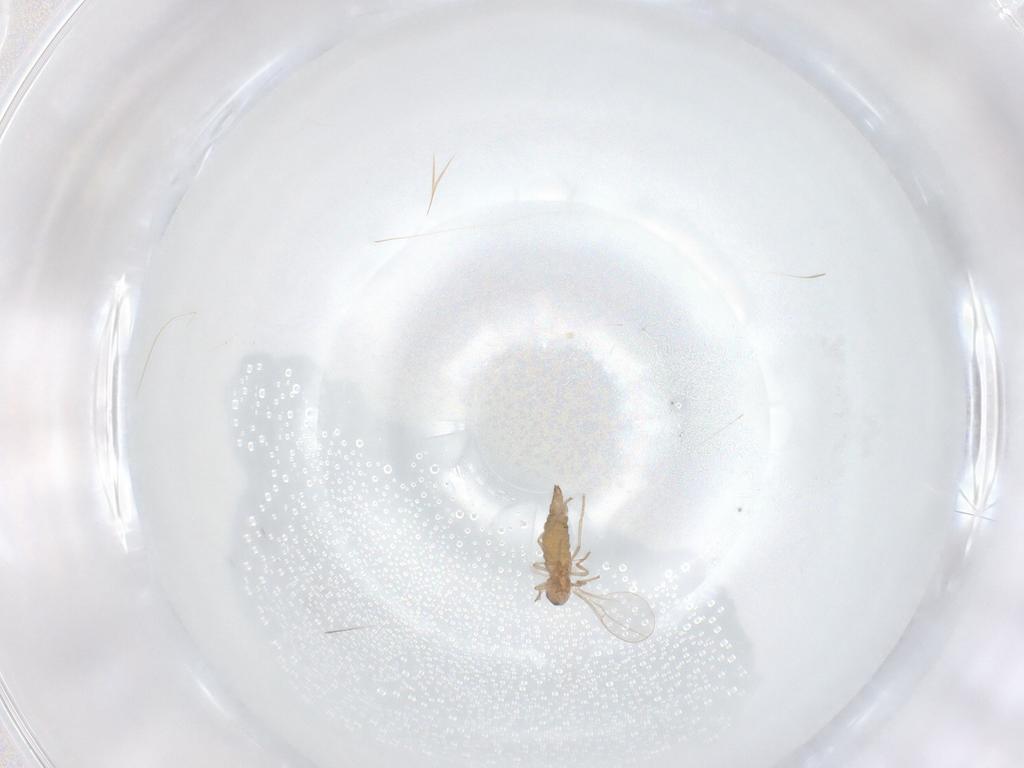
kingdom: Animalia
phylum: Arthropoda
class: Insecta
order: Diptera
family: Cecidomyiidae
